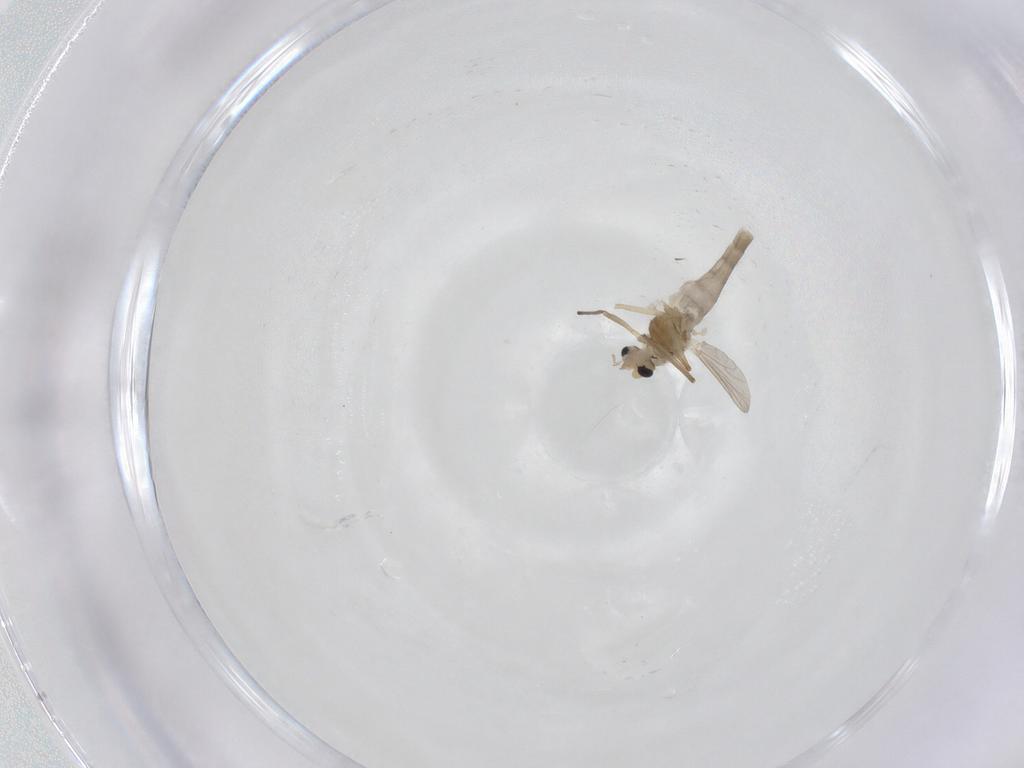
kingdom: Animalia
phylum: Arthropoda
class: Insecta
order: Diptera
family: Chironomidae
